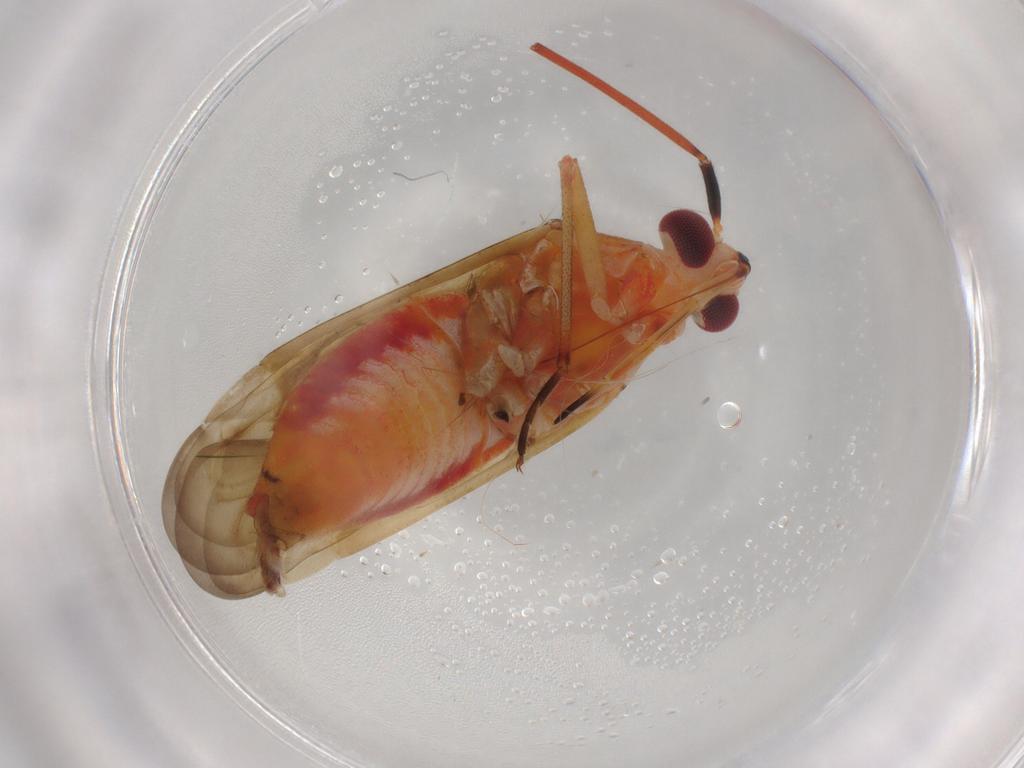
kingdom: Animalia
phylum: Arthropoda
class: Insecta
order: Hemiptera
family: Miridae
